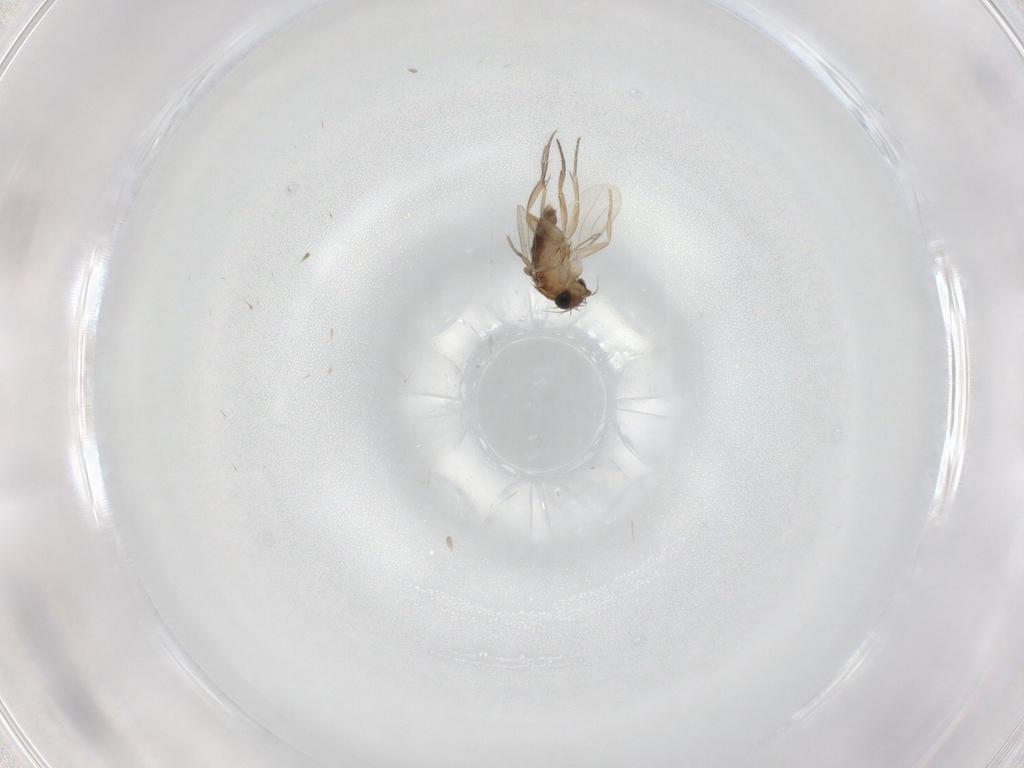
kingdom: Animalia
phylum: Arthropoda
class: Insecta
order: Diptera
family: Phoridae
